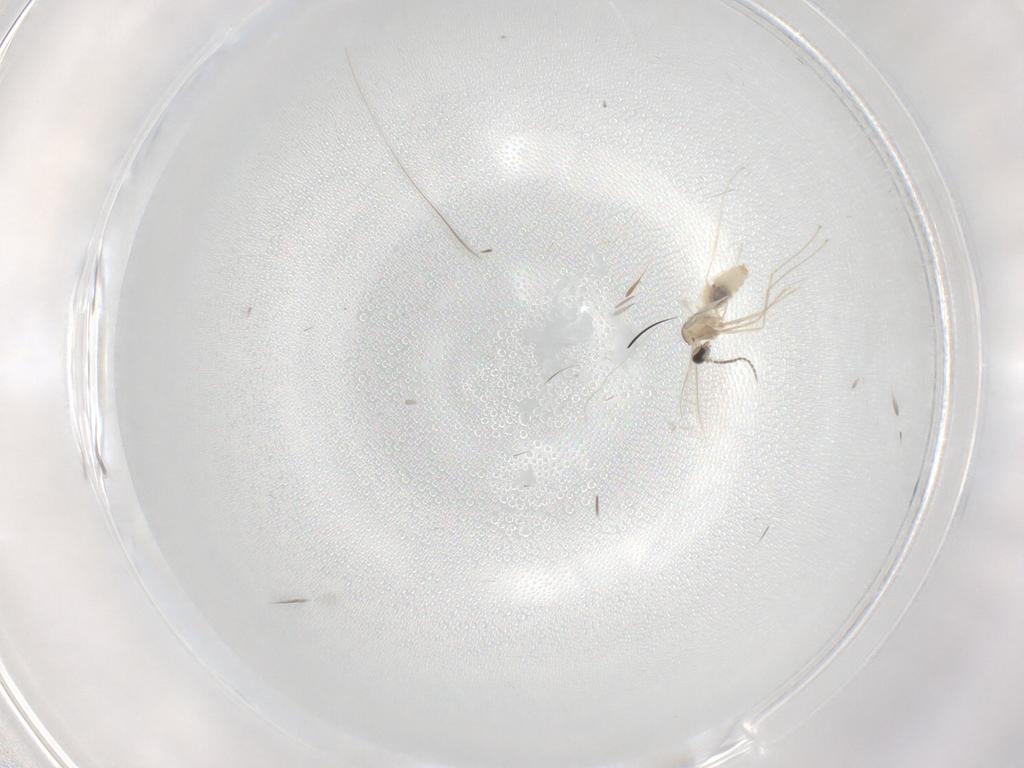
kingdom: Animalia
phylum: Arthropoda
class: Insecta
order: Diptera
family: Cecidomyiidae
